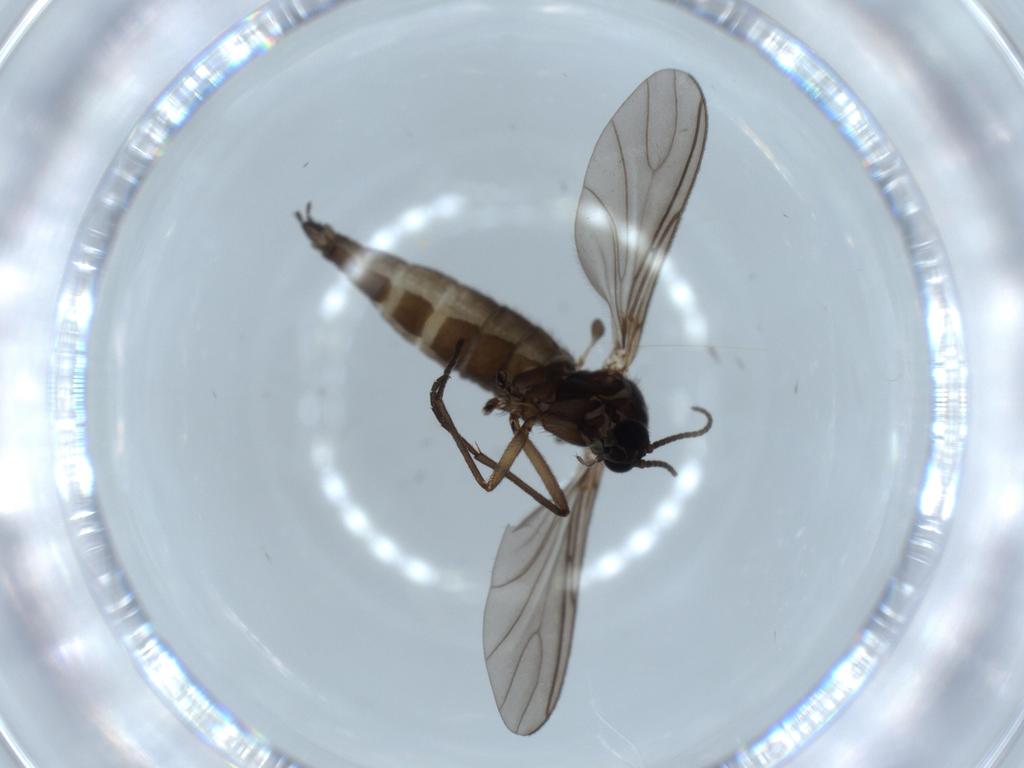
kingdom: Animalia
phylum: Arthropoda
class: Insecta
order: Diptera
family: Sciaridae
